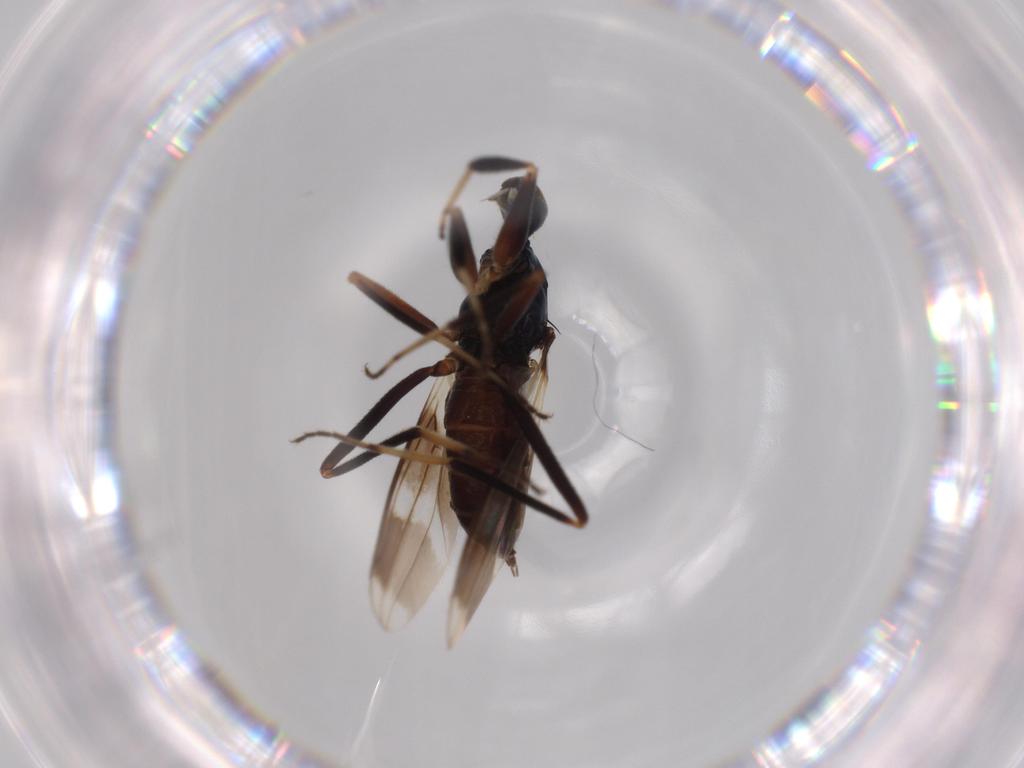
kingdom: Animalia
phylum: Arthropoda
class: Insecta
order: Diptera
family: Hybotidae
